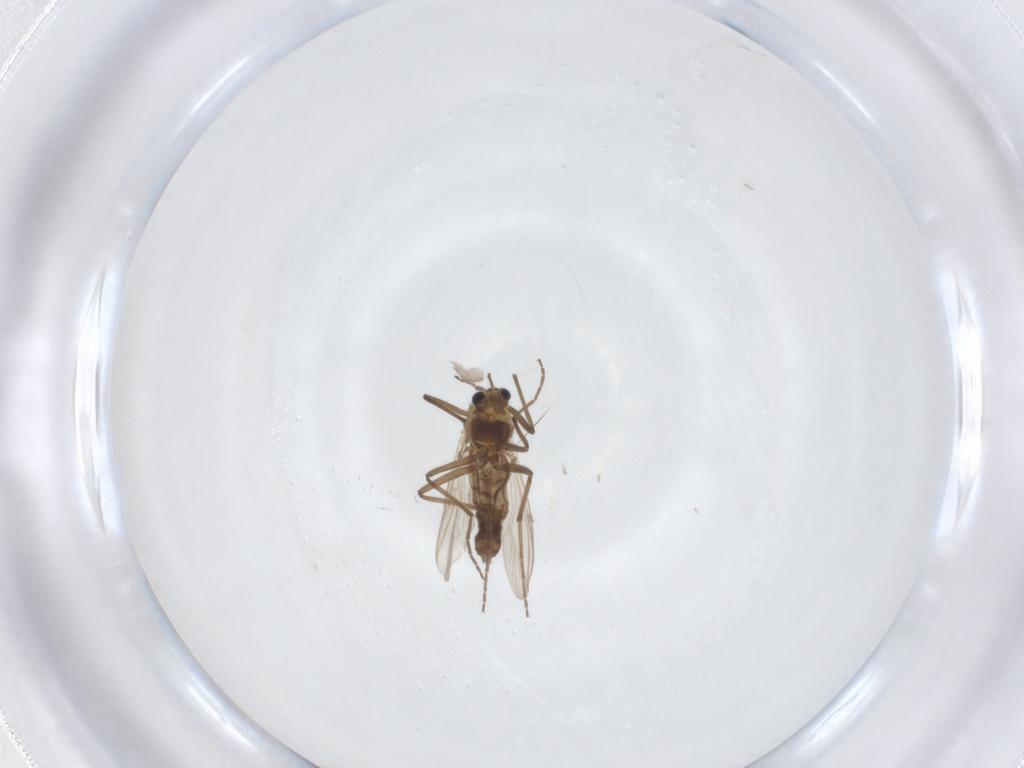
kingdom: Animalia
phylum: Arthropoda
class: Insecta
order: Diptera
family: Chironomidae
